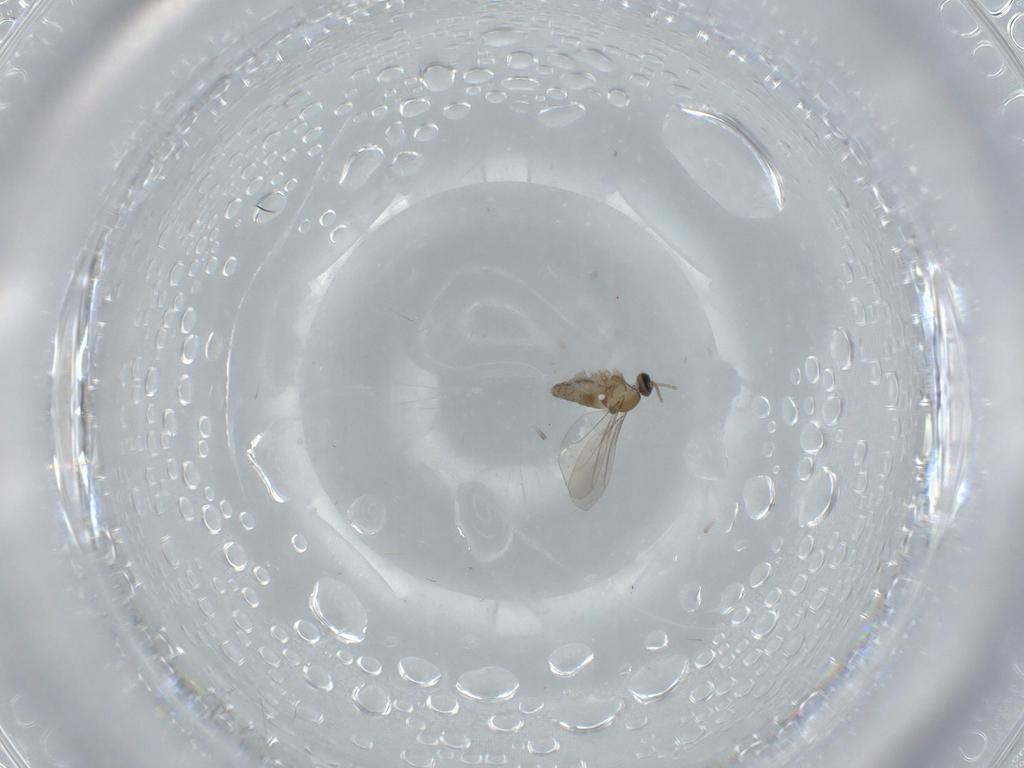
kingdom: Animalia
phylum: Arthropoda
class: Insecta
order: Diptera
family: Cecidomyiidae
